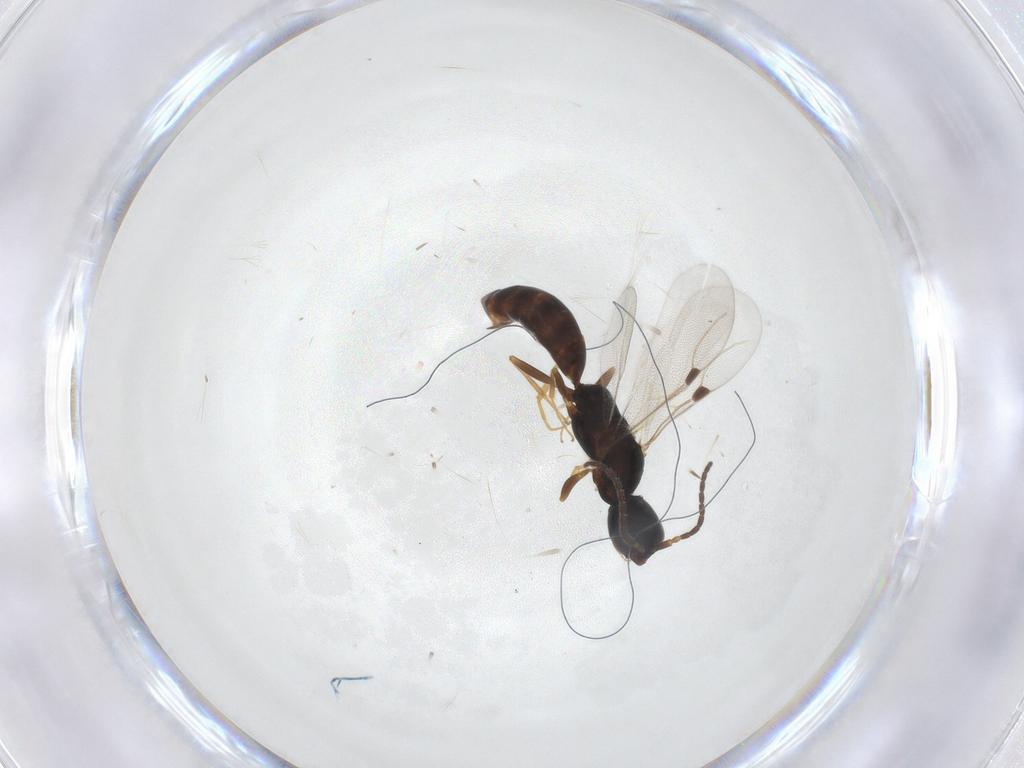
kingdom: Animalia
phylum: Arthropoda
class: Insecta
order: Hymenoptera
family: Bethylidae
